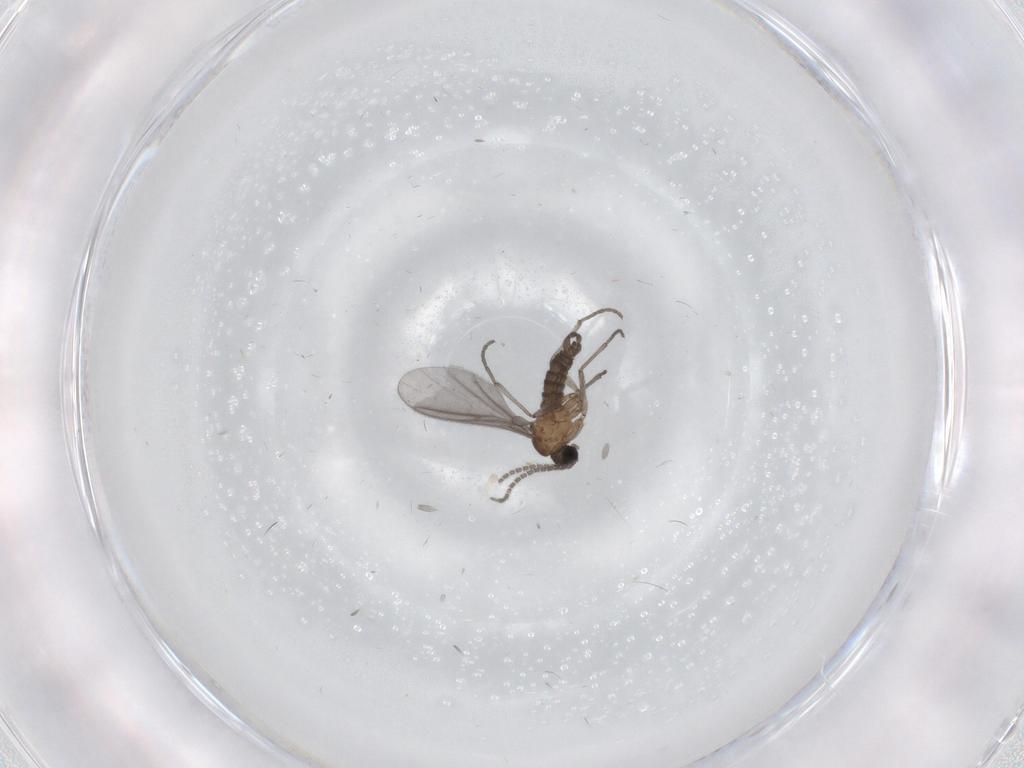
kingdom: Animalia
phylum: Arthropoda
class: Insecta
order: Diptera
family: Sciaridae
